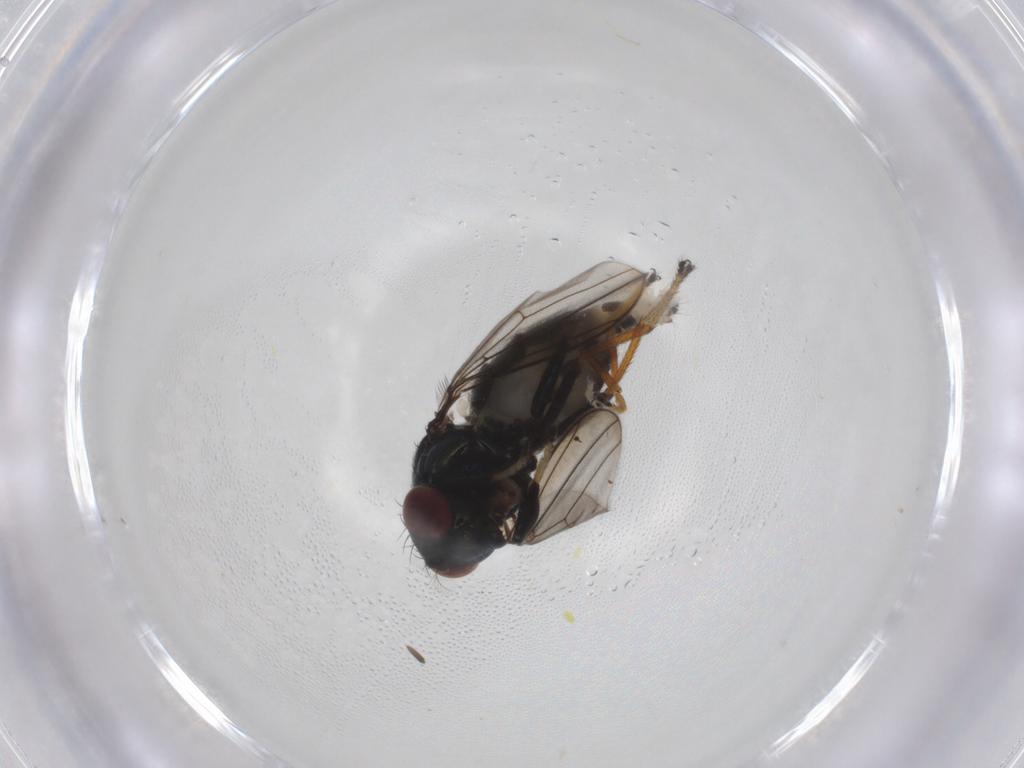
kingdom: Animalia
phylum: Arthropoda
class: Insecta
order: Diptera
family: Ephydridae
